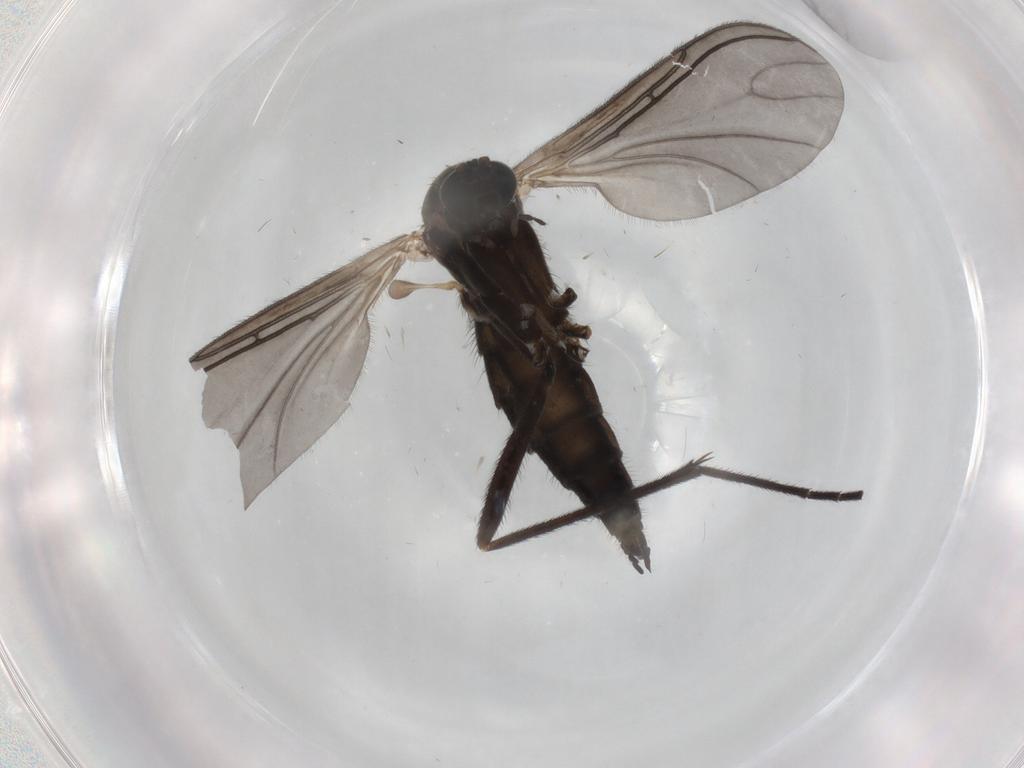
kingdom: Animalia
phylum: Arthropoda
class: Insecta
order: Diptera
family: Sciaridae
